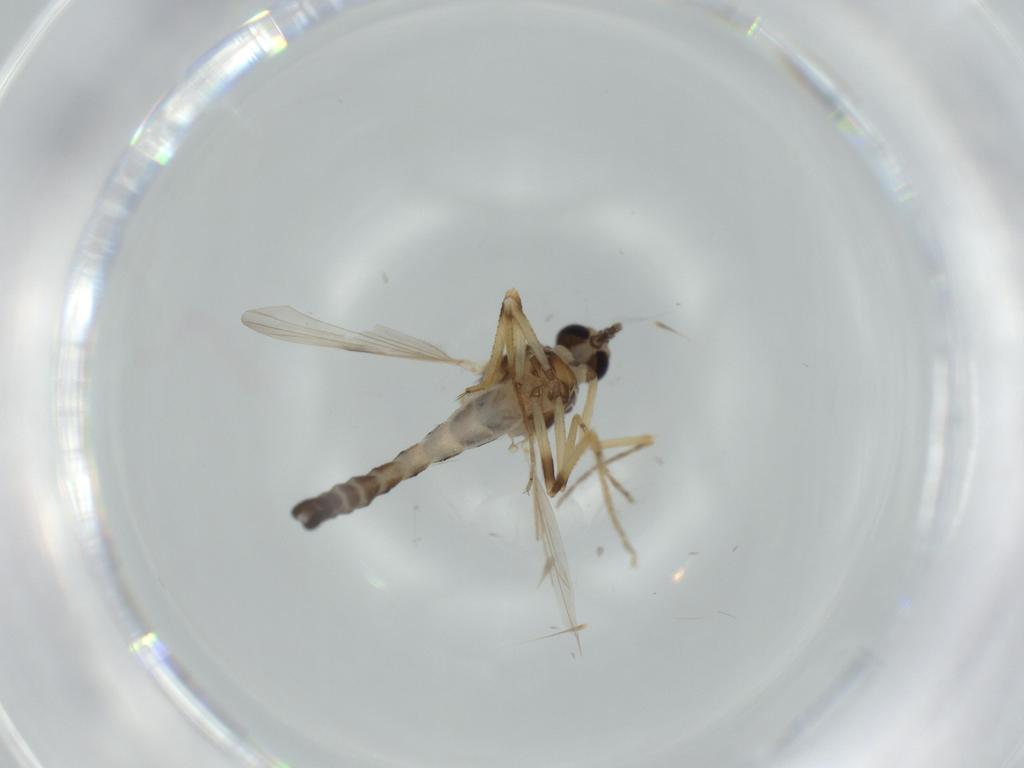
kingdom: Animalia
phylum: Arthropoda
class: Insecta
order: Diptera
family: Ceratopogonidae
